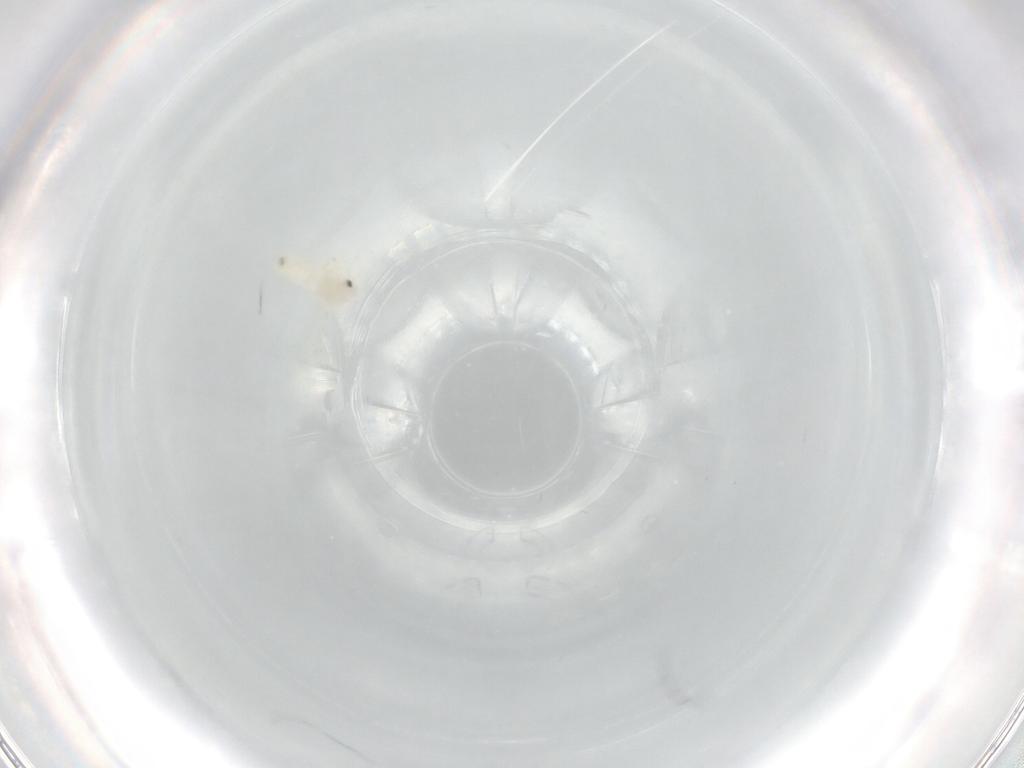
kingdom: Animalia
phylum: Arthropoda
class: Insecta
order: Hemiptera
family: Aleyrodidae
